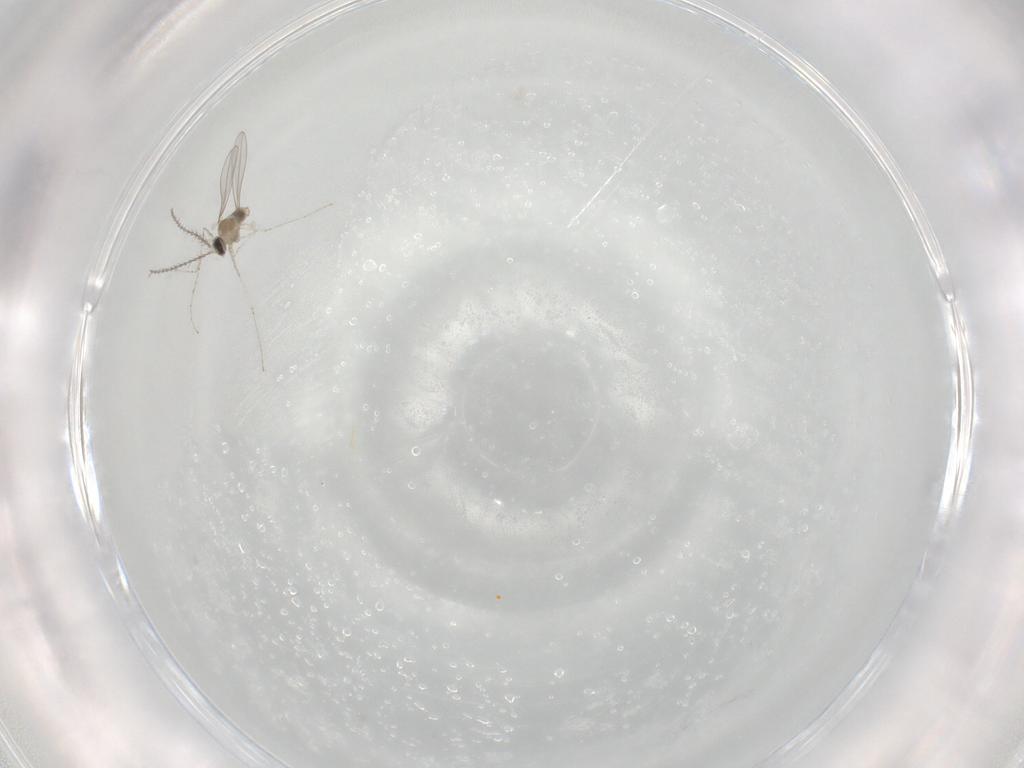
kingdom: Animalia
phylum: Arthropoda
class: Insecta
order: Diptera
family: Cecidomyiidae
